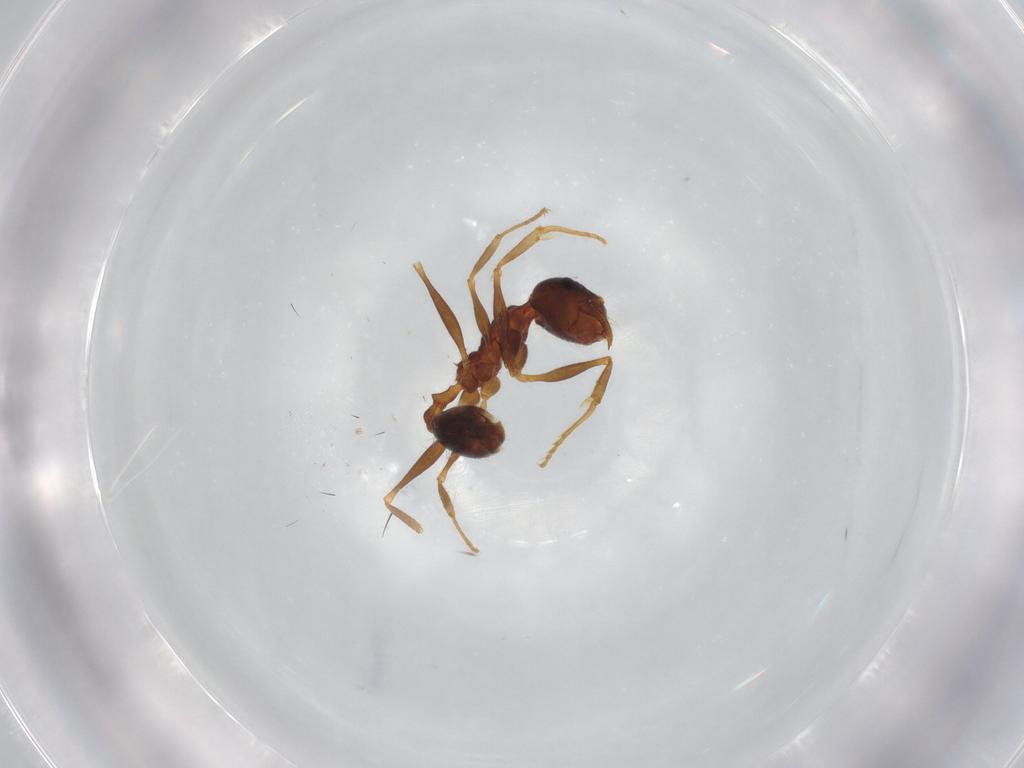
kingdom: Animalia
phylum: Arthropoda
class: Insecta
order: Hymenoptera
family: Formicidae
